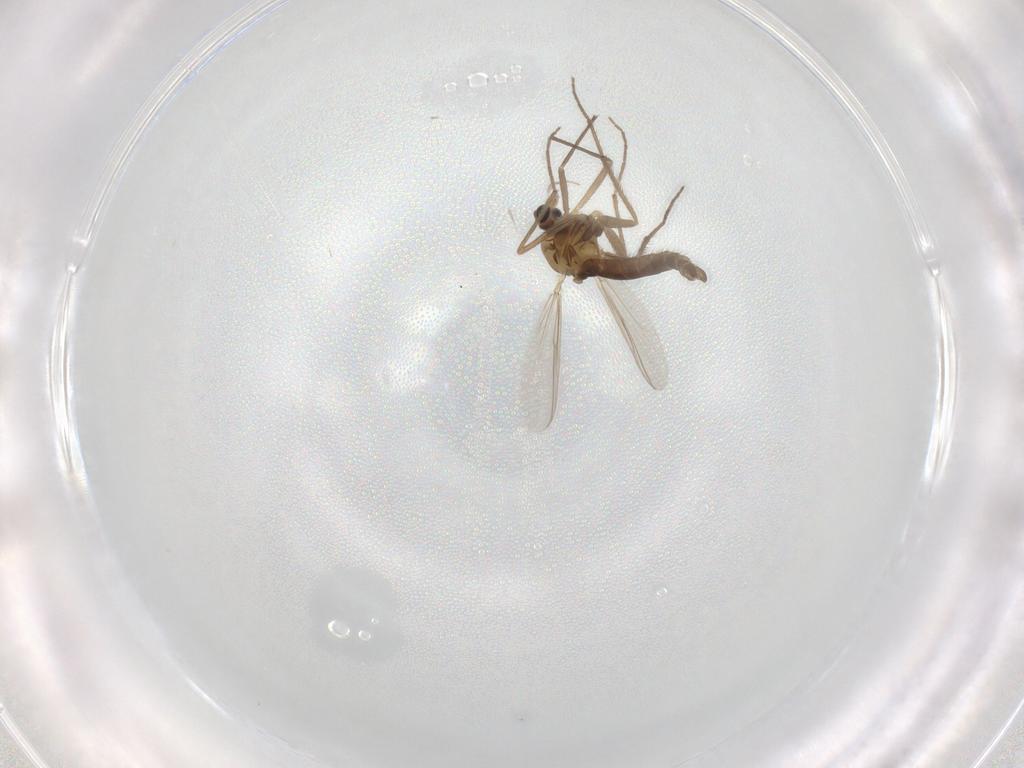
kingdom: Animalia
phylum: Arthropoda
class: Insecta
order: Diptera
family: Chironomidae
